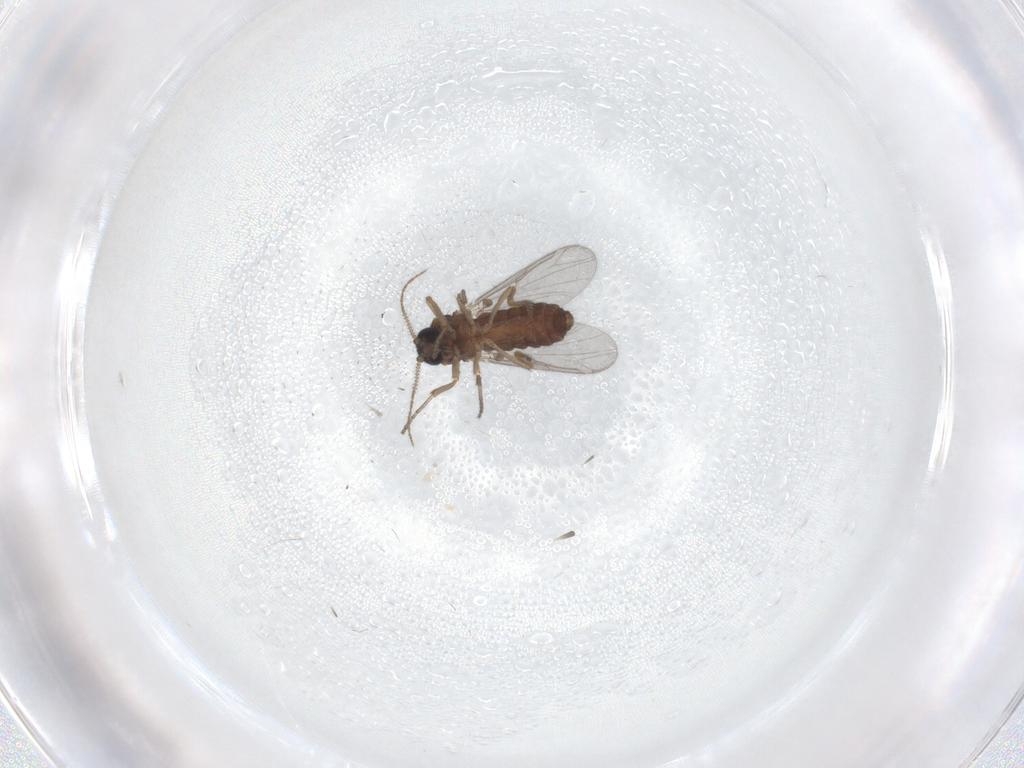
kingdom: Animalia
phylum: Arthropoda
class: Insecta
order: Diptera
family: Ceratopogonidae
